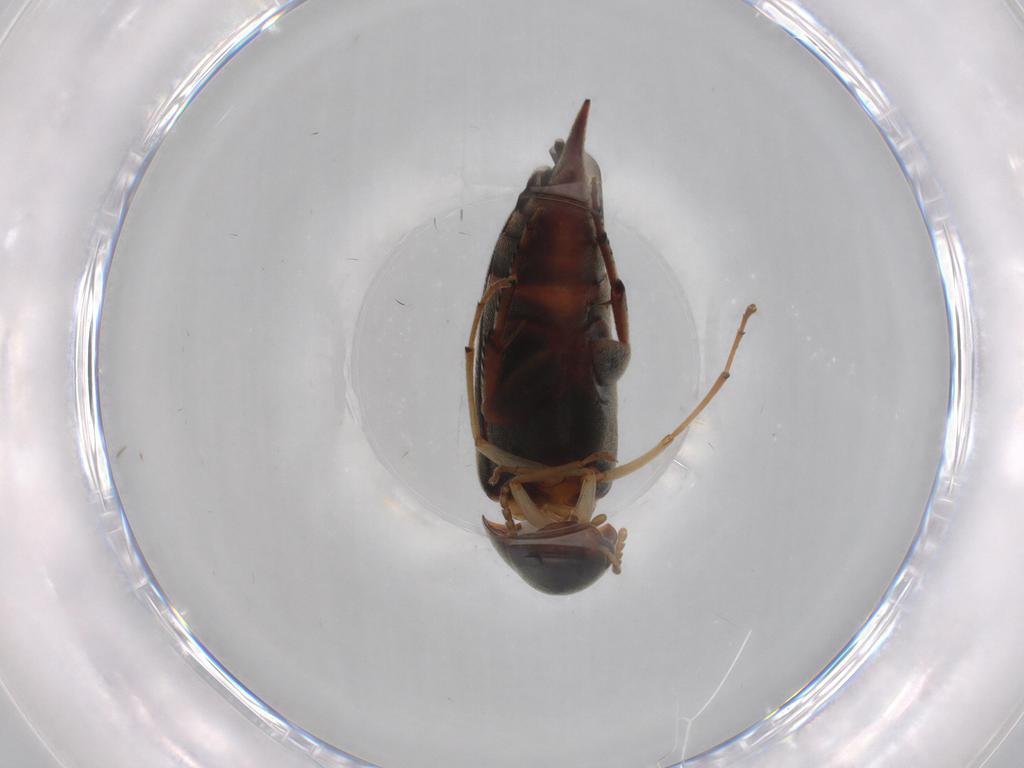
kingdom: Animalia
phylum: Arthropoda
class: Insecta
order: Coleoptera
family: Mordellidae
